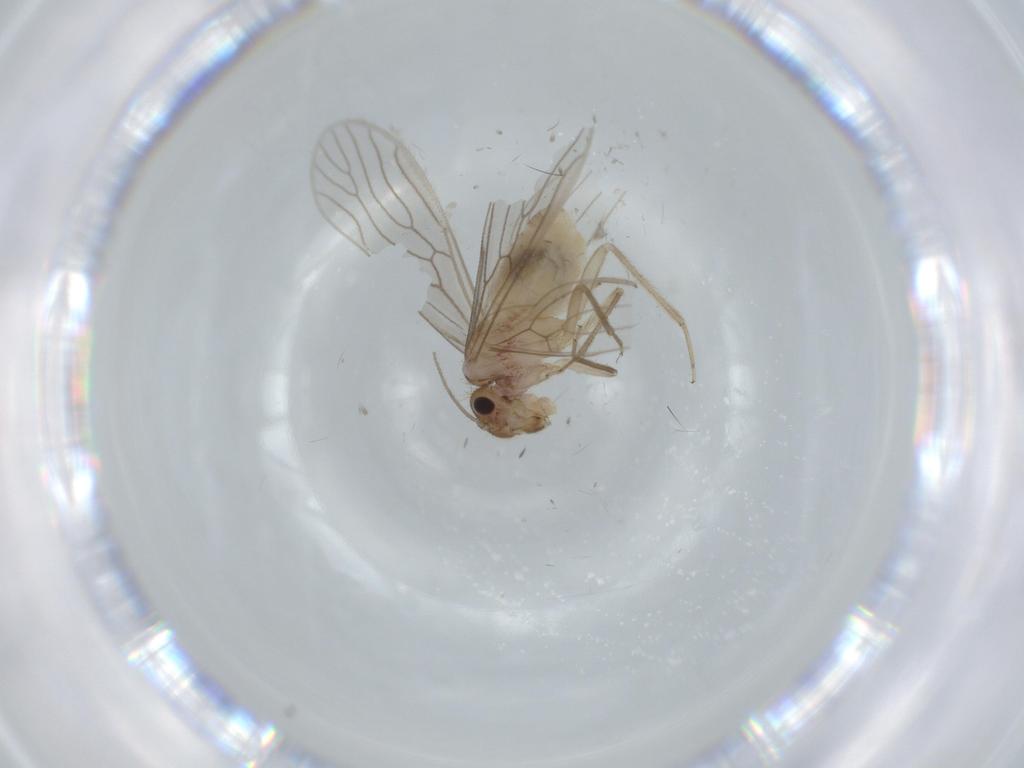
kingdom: Animalia
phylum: Arthropoda
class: Insecta
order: Psocodea
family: Cladiopsocidae
